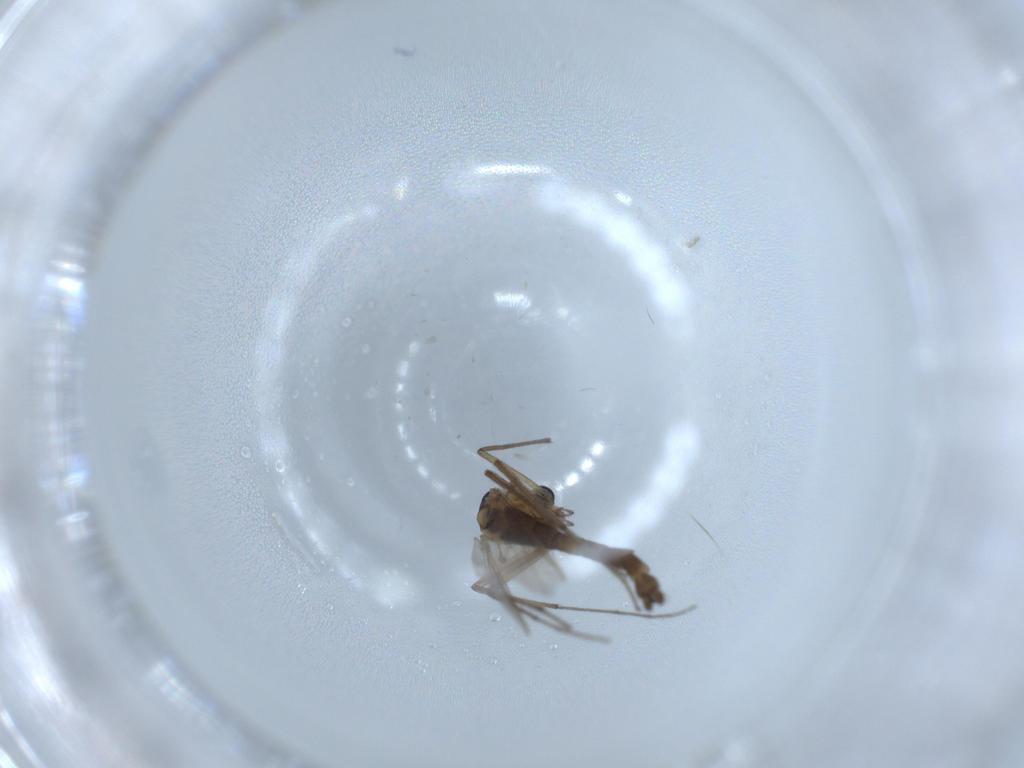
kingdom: Animalia
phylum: Arthropoda
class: Insecta
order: Diptera
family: Chironomidae
